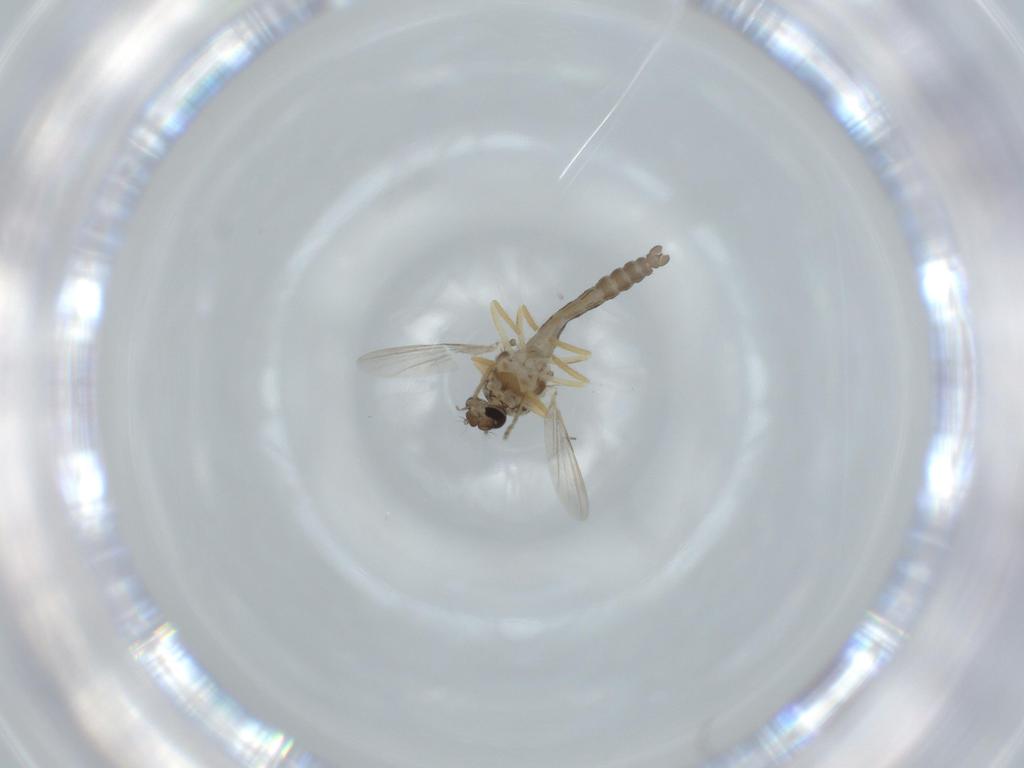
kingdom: Animalia
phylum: Arthropoda
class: Insecta
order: Diptera
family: Ceratopogonidae
